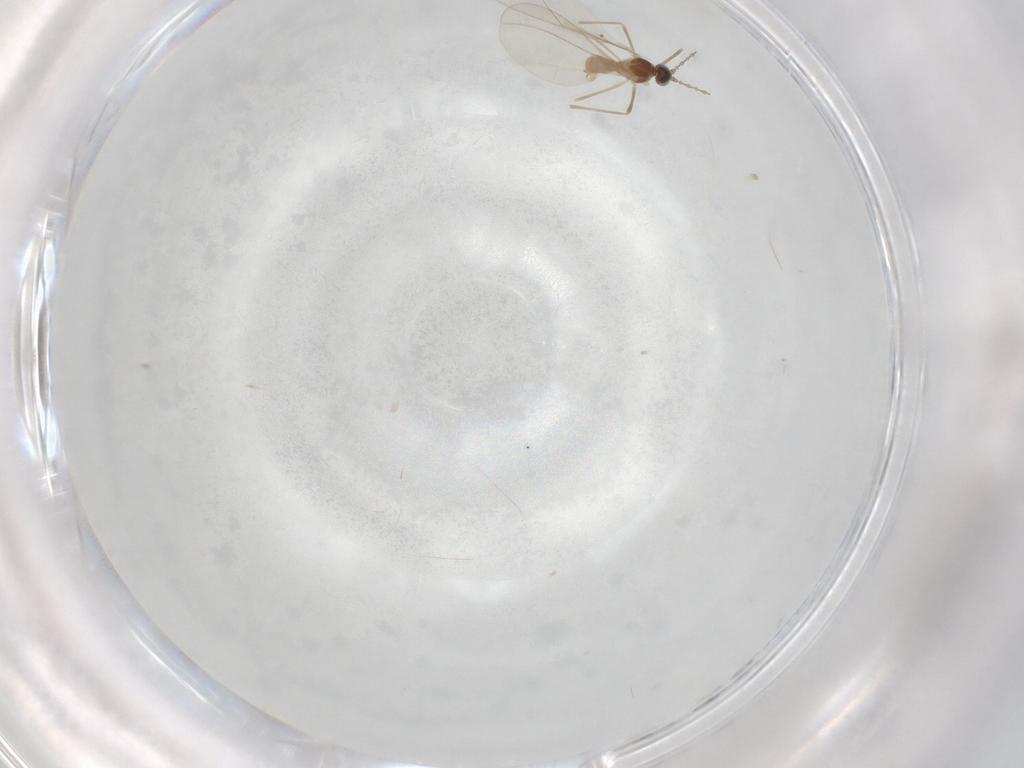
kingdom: Animalia
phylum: Arthropoda
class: Insecta
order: Diptera
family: Cecidomyiidae
